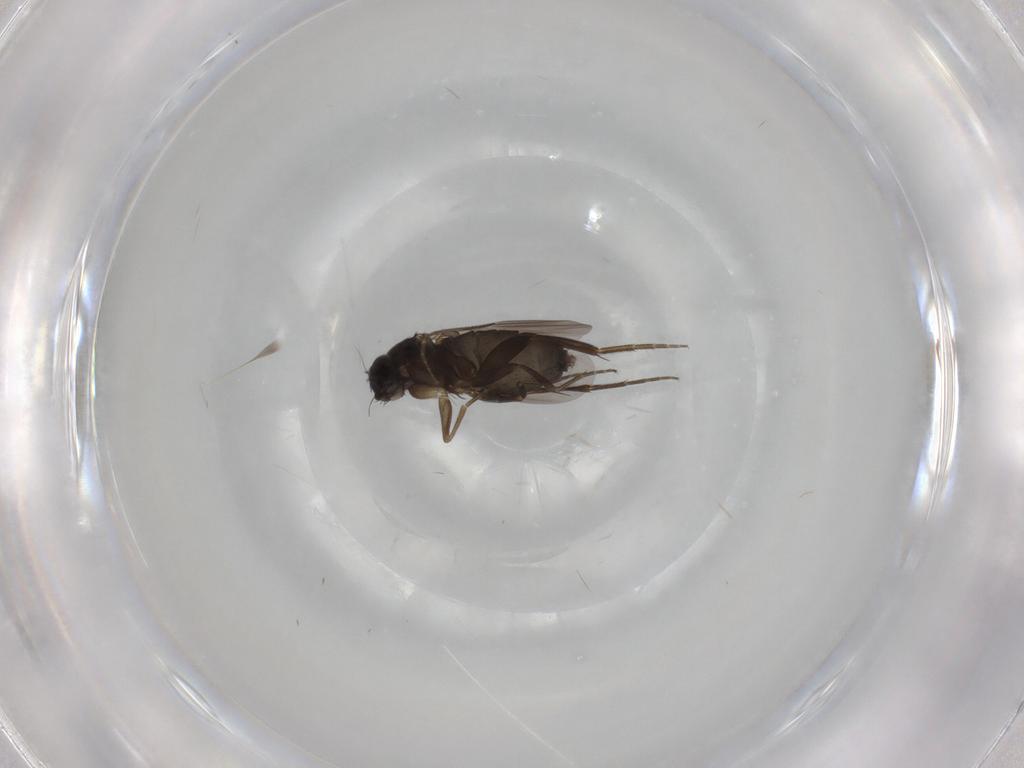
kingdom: Animalia
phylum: Arthropoda
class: Insecta
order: Diptera
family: Phoridae
